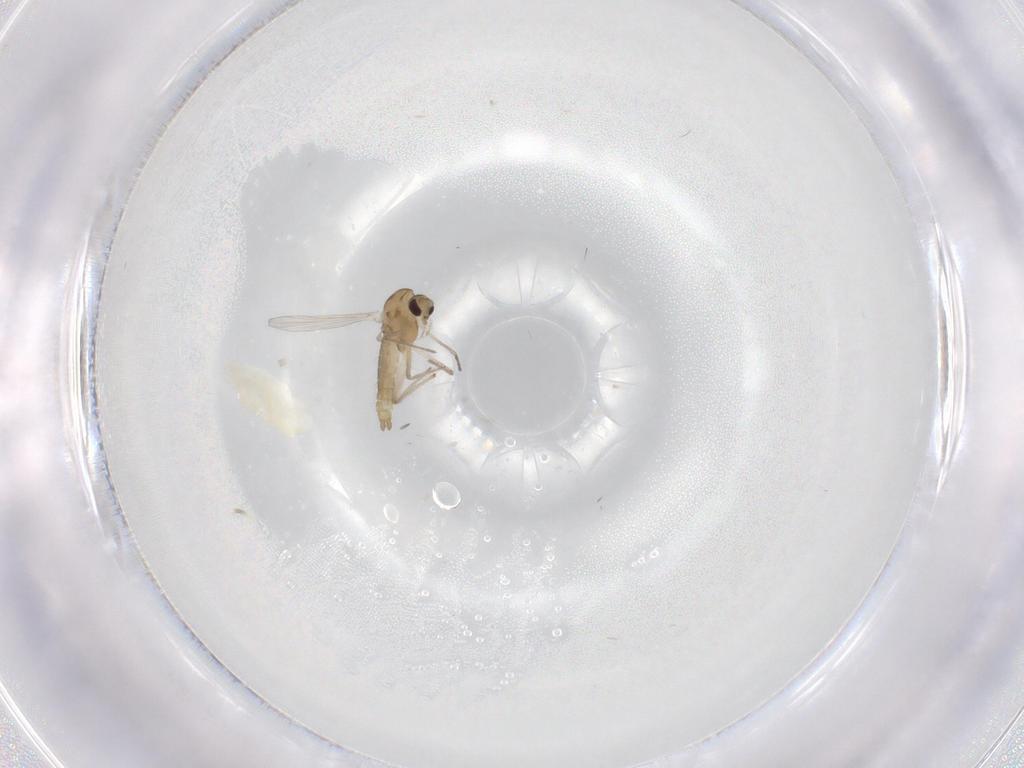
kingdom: Animalia
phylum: Arthropoda
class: Insecta
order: Diptera
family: Chironomidae
